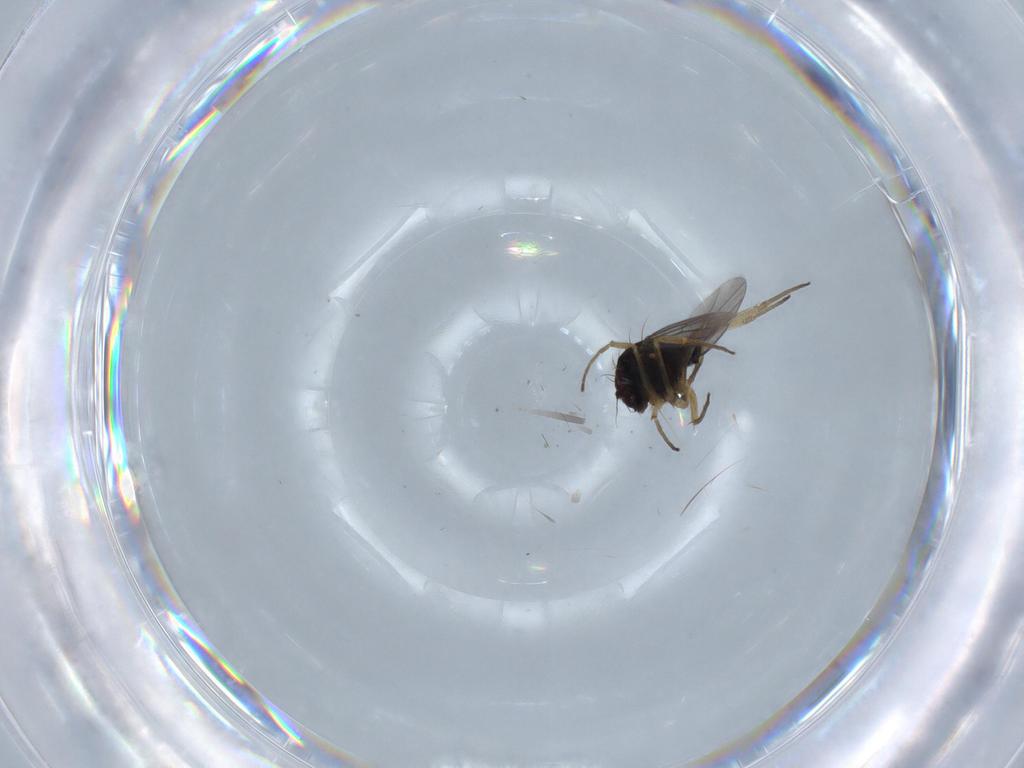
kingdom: Animalia
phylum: Arthropoda
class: Insecta
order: Diptera
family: Dolichopodidae
